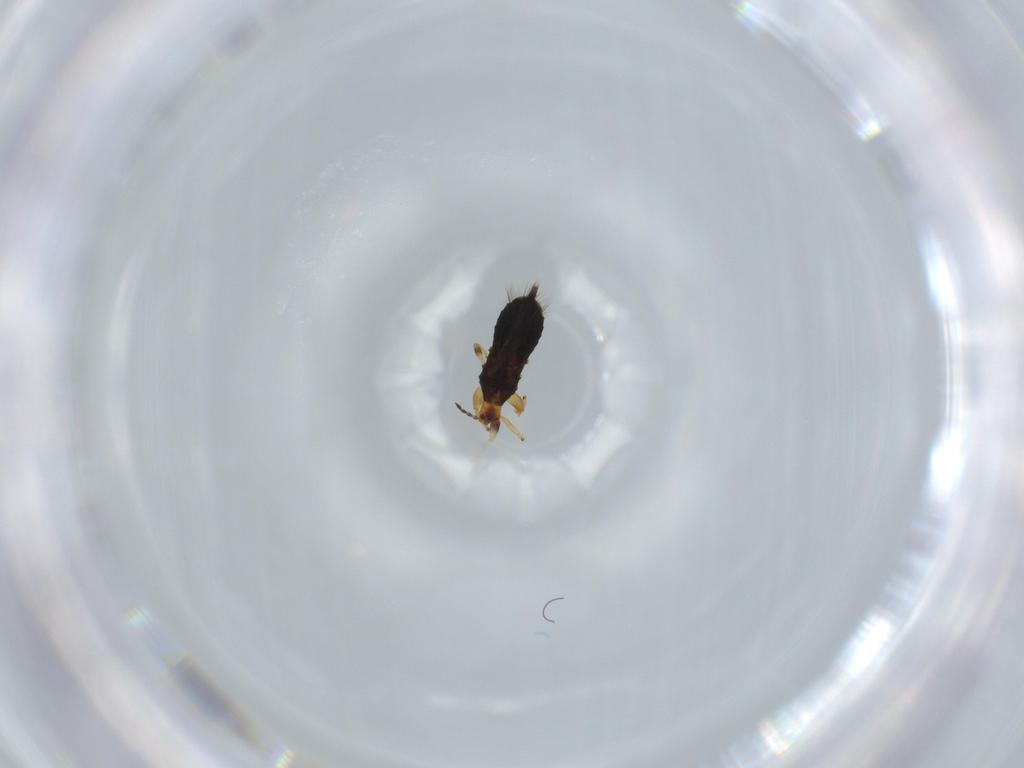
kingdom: Animalia
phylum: Arthropoda
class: Insecta
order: Thysanoptera
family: Phlaeothripidae
